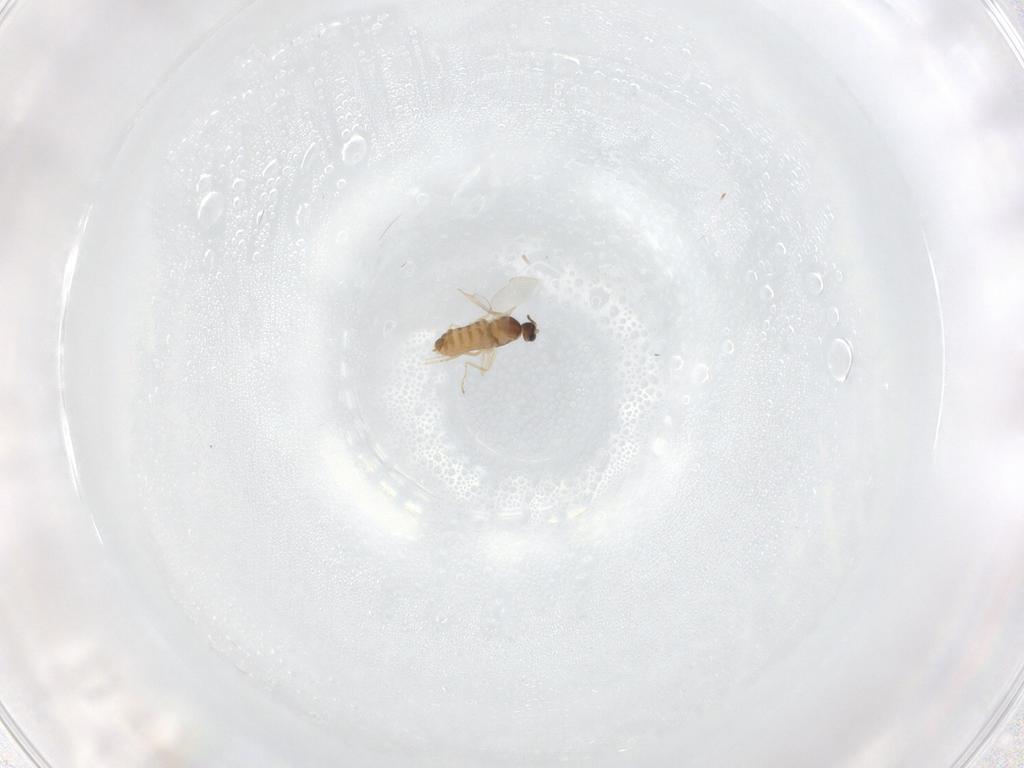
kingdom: Animalia
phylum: Arthropoda
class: Insecta
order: Diptera
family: Cecidomyiidae
